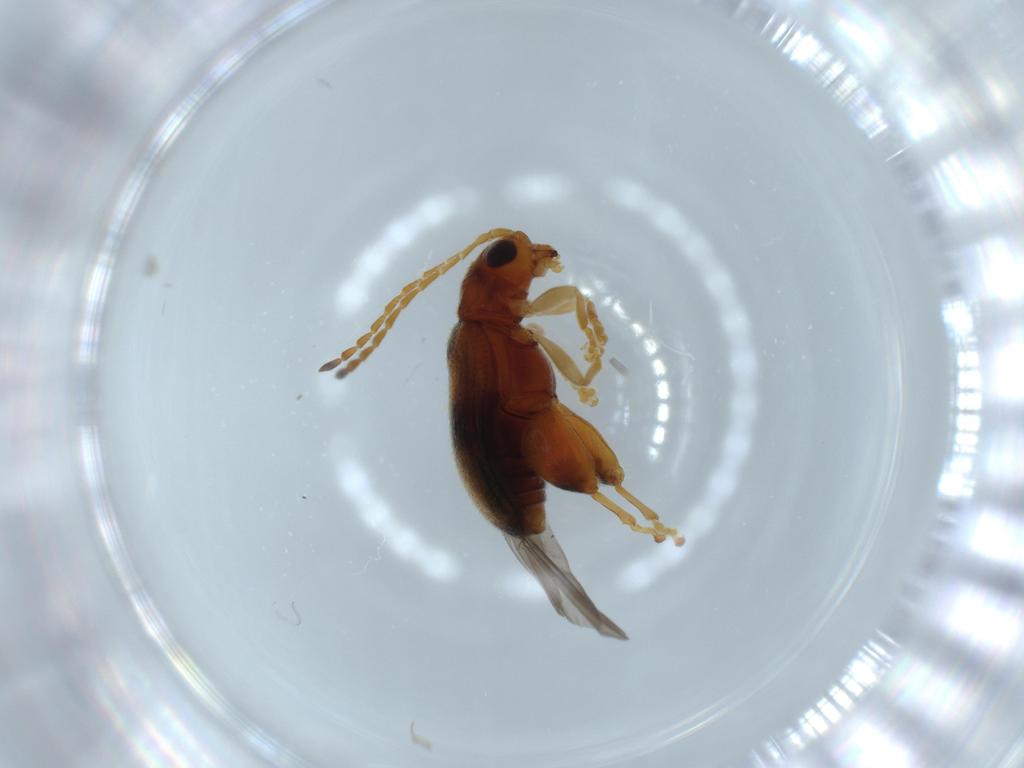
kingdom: Animalia
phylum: Arthropoda
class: Insecta
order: Coleoptera
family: Chrysomelidae
